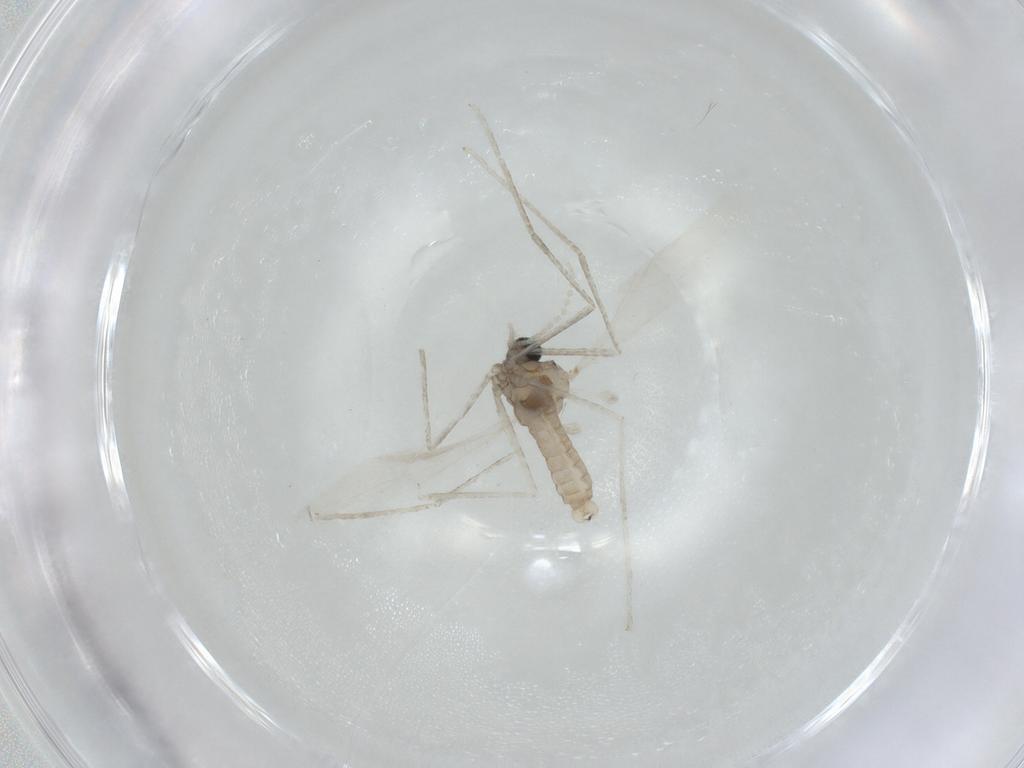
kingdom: Animalia
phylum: Arthropoda
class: Insecta
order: Diptera
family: Cecidomyiidae
